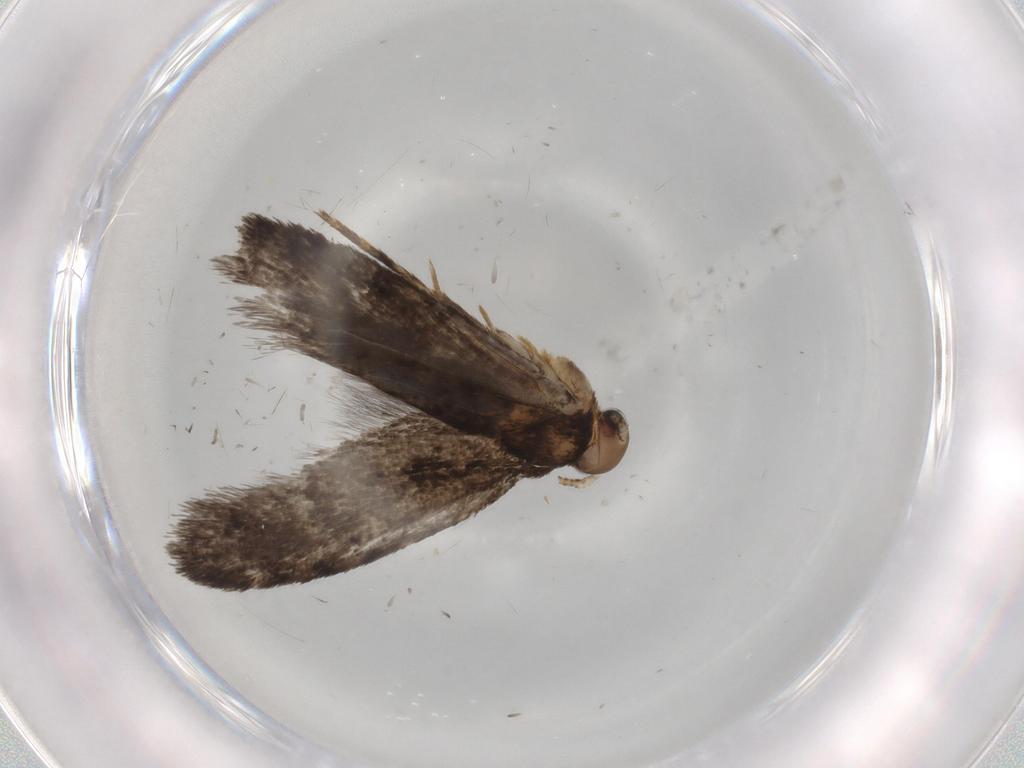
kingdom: Animalia
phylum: Arthropoda
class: Insecta
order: Lepidoptera
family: Tineidae
